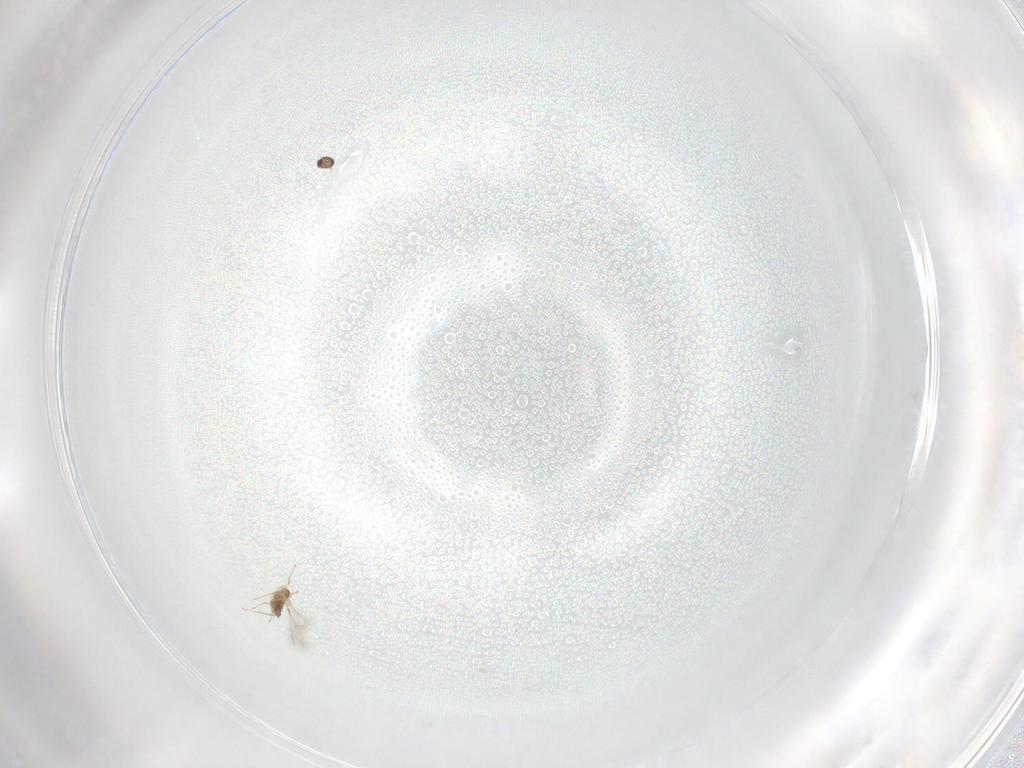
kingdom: Animalia
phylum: Arthropoda
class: Insecta
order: Hymenoptera
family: Mymaridae
